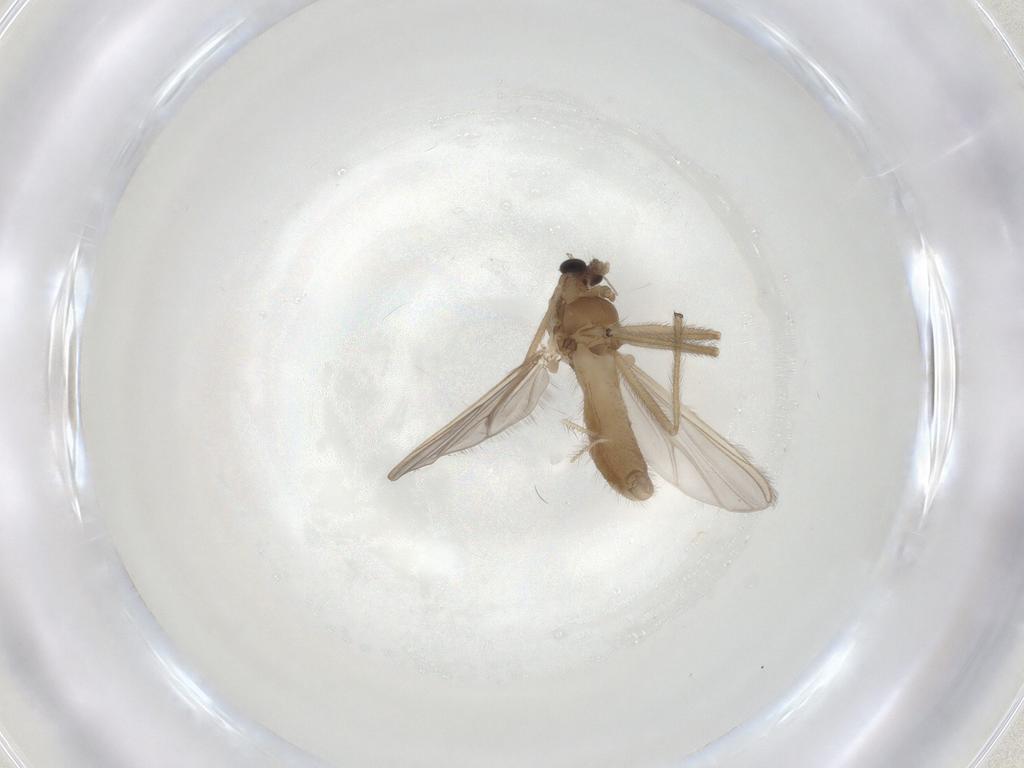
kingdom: Animalia
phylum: Arthropoda
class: Insecta
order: Diptera
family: Chironomidae
